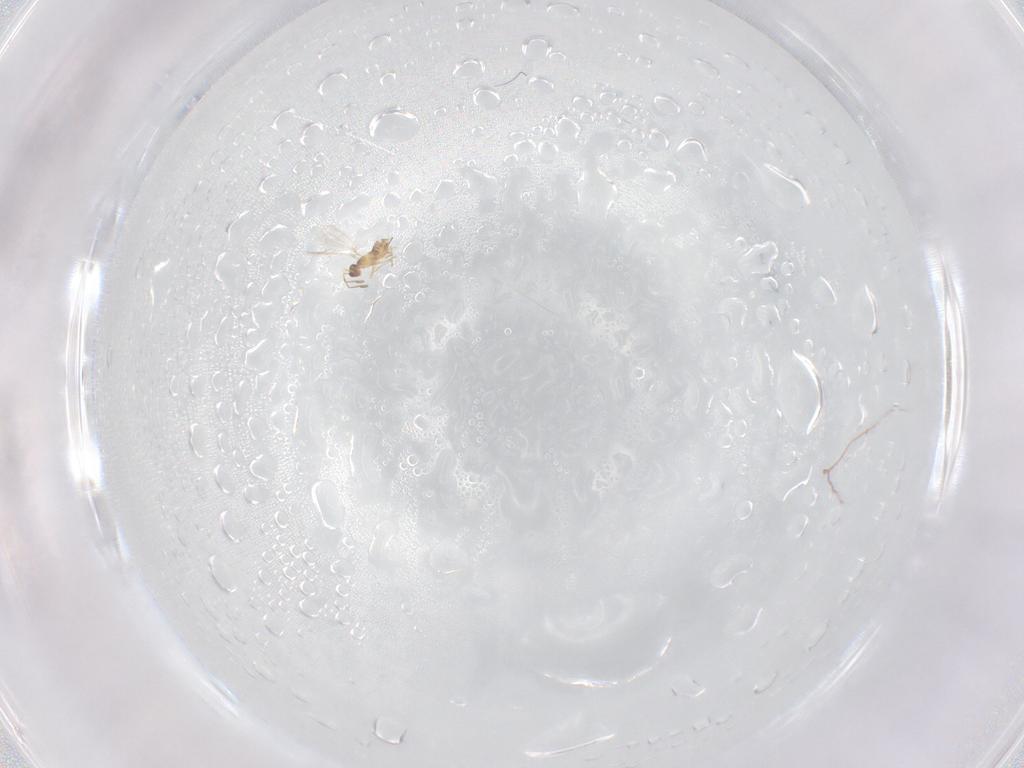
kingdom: Animalia
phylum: Arthropoda
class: Insecta
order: Hymenoptera
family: Mymaridae
